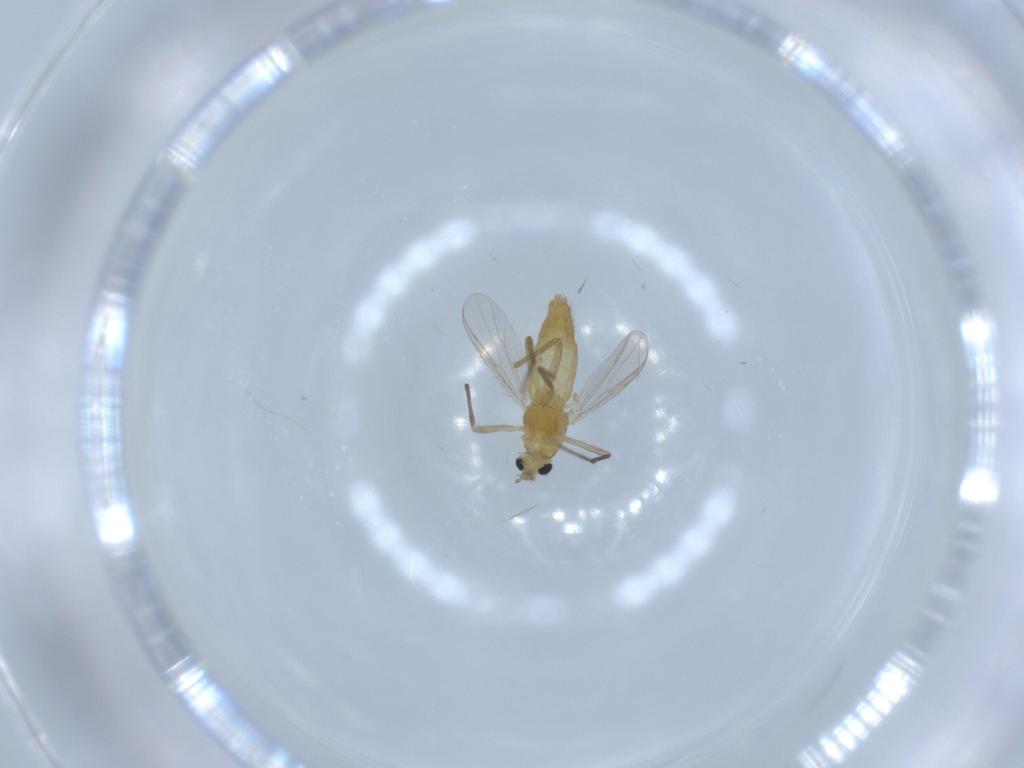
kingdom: Animalia
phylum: Arthropoda
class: Insecta
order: Diptera
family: Chironomidae
